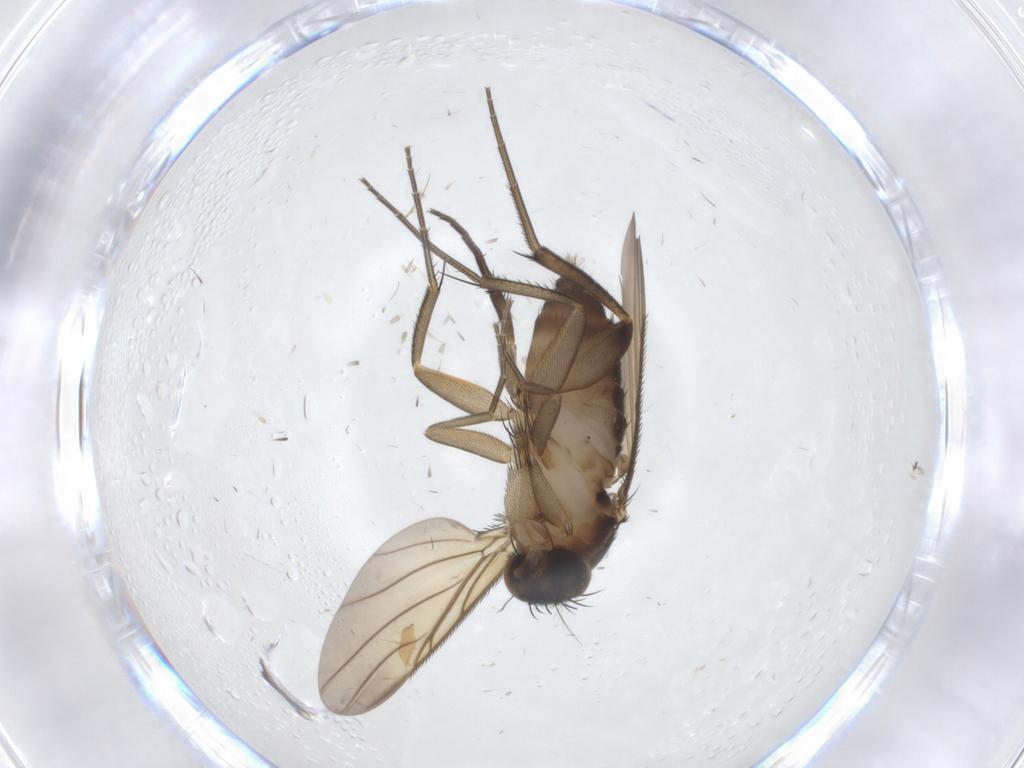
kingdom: Animalia
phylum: Arthropoda
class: Insecta
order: Diptera
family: Phoridae
